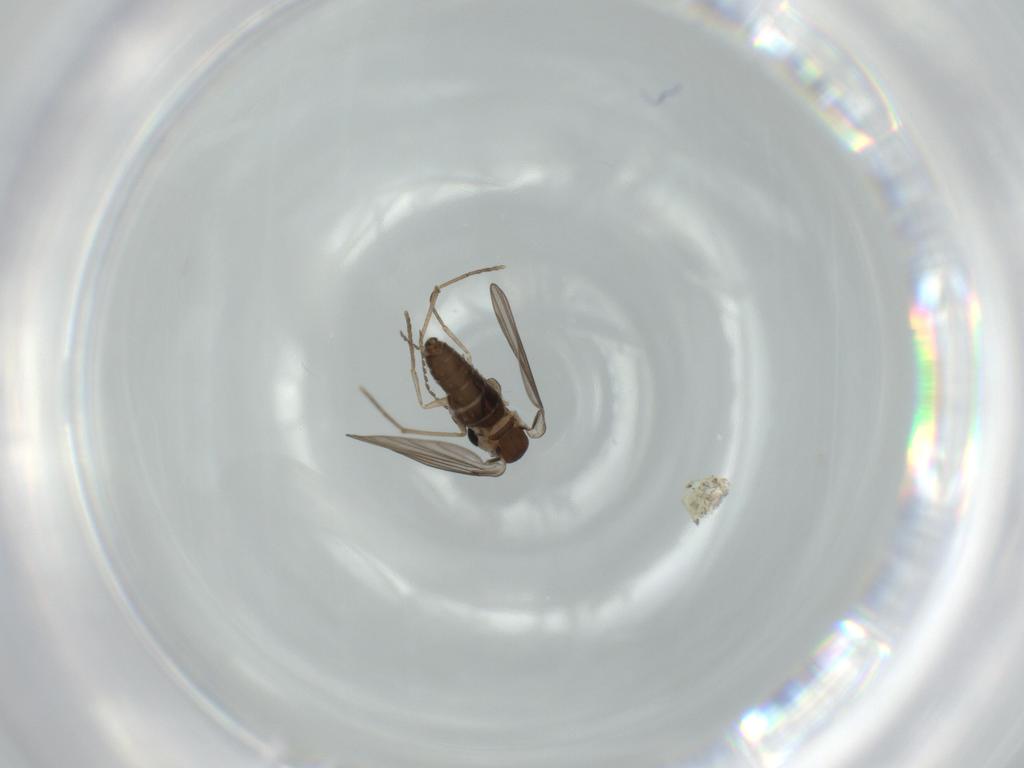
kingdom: Animalia
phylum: Arthropoda
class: Insecta
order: Diptera
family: Psychodidae
